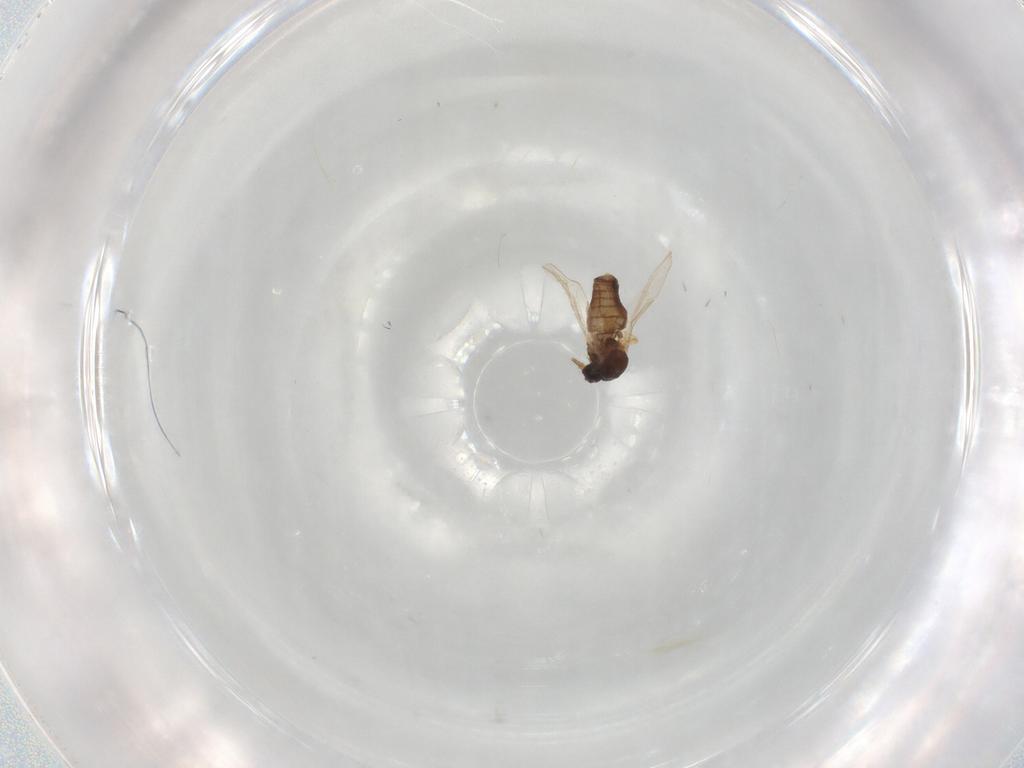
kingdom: Animalia
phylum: Arthropoda
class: Insecta
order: Diptera
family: Ceratopogonidae
